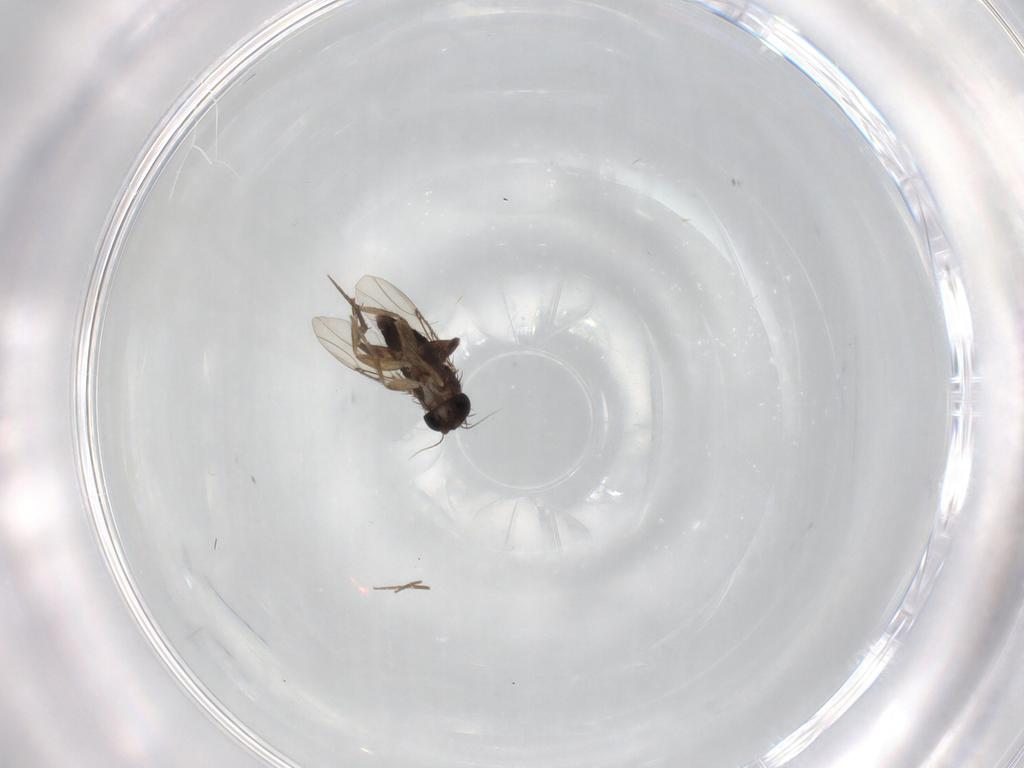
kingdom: Animalia
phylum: Arthropoda
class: Insecta
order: Diptera
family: Phoridae
